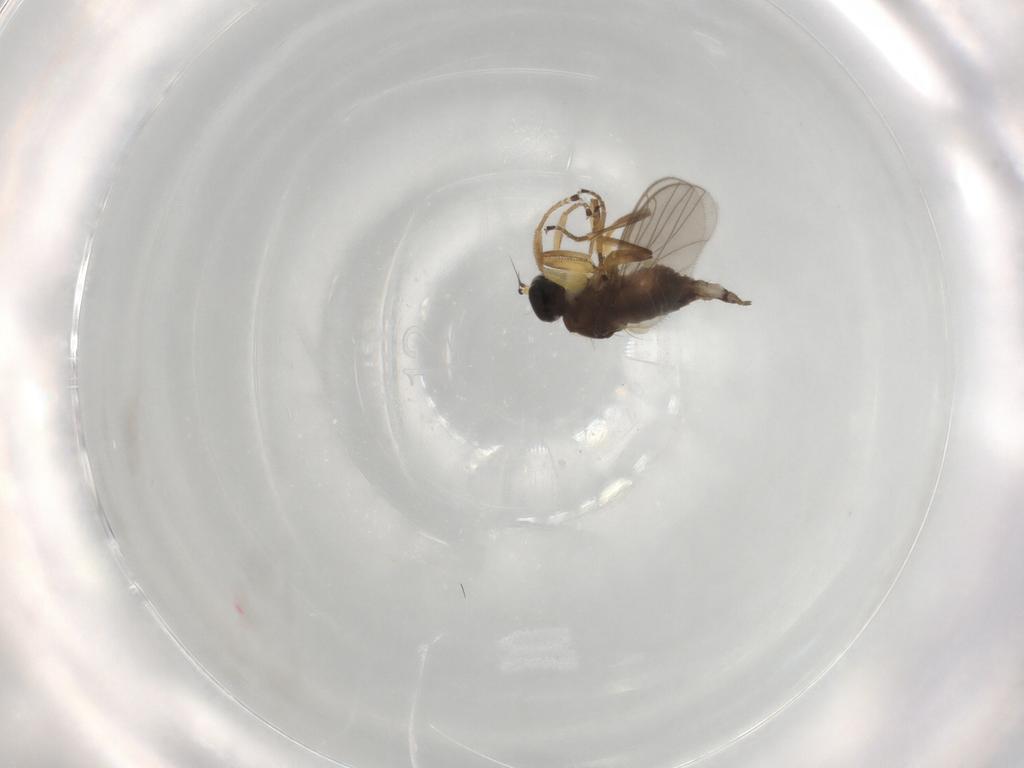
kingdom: Animalia
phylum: Arthropoda
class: Insecta
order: Diptera
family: Hybotidae
